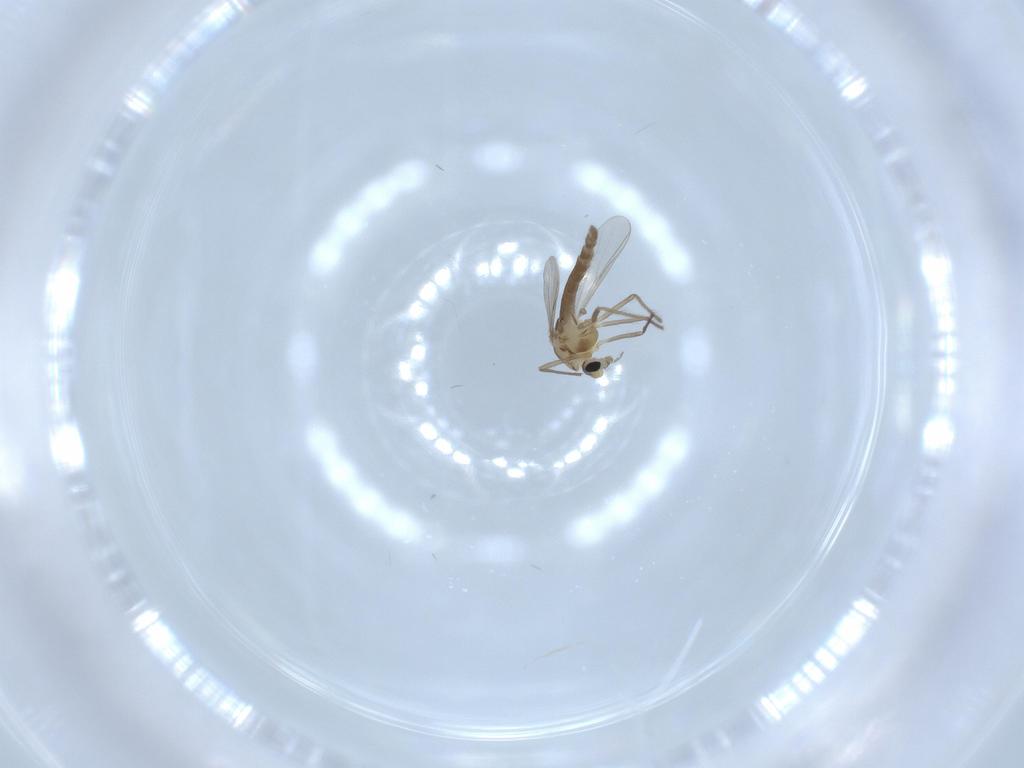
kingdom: Animalia
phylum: Arthropoda
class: Insecta
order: Diptera
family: Chironomidae
